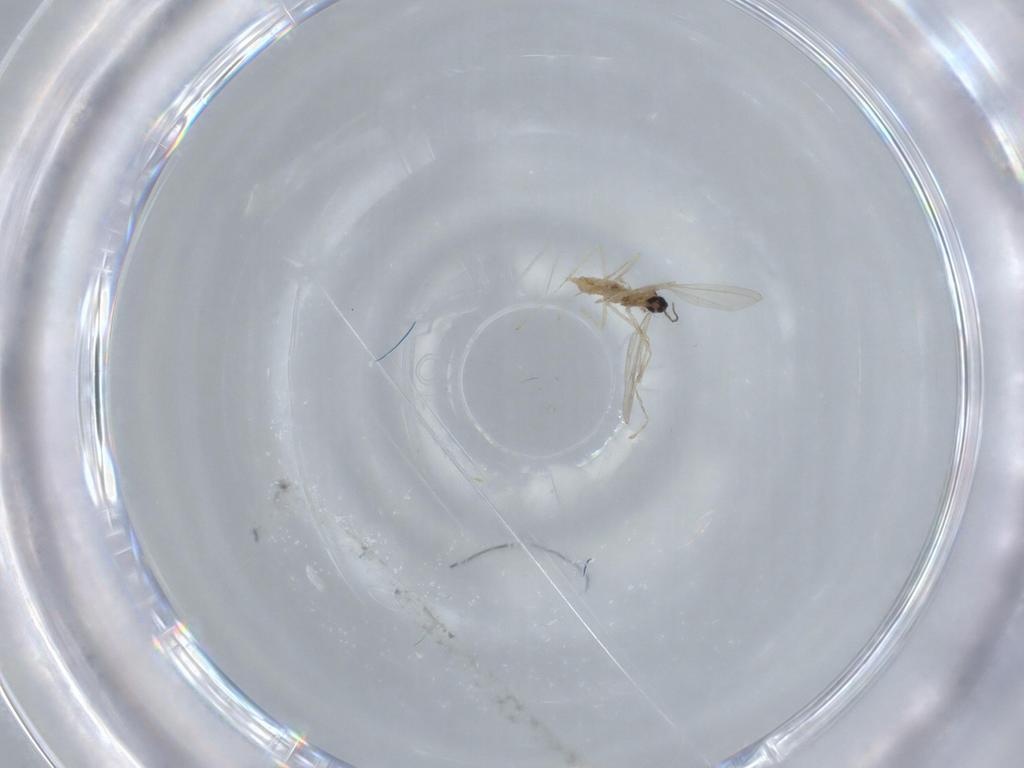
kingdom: Animalia
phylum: Arthropoda
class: Insecta
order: Diptera
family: Cecidomyiidae
